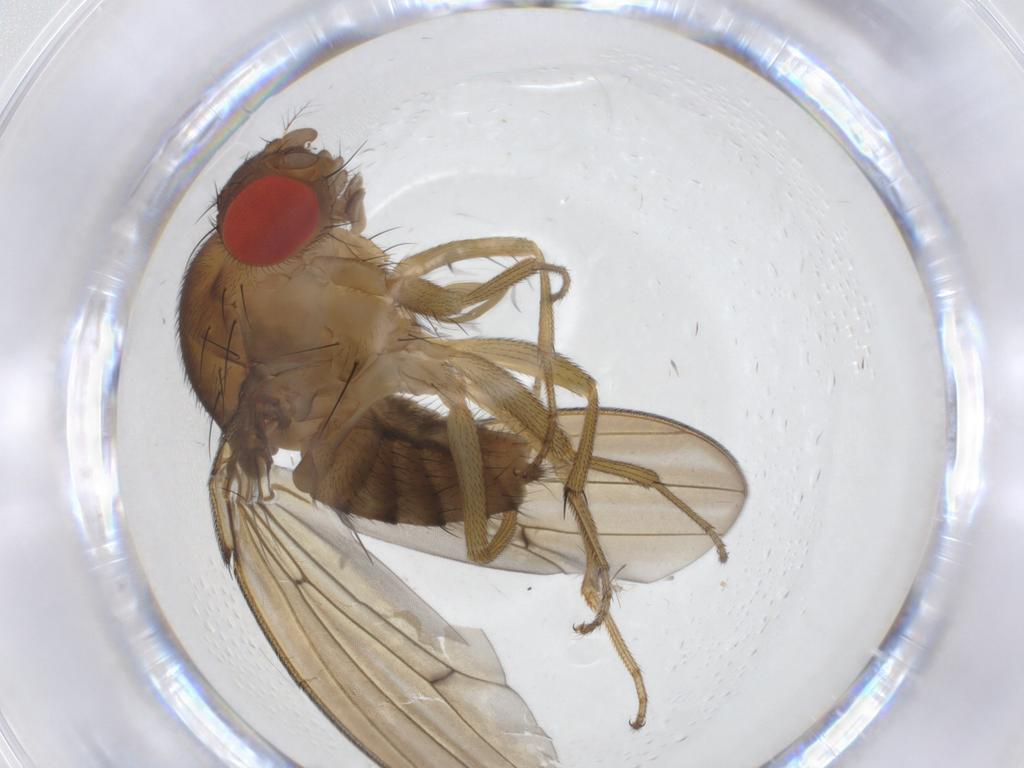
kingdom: Animalia
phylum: Arthropoda
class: Insecta
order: Diptera
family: Drosophilidae
